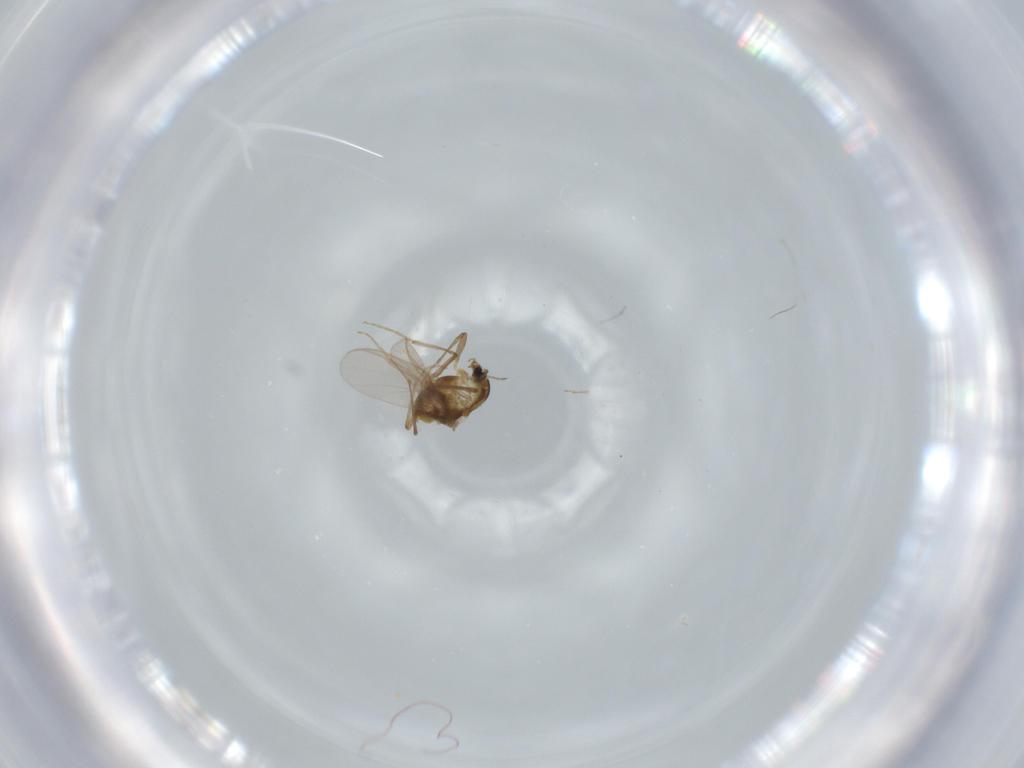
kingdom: Animalia
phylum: Arthropoda
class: Insecta
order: Diptera
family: Chironomidae
